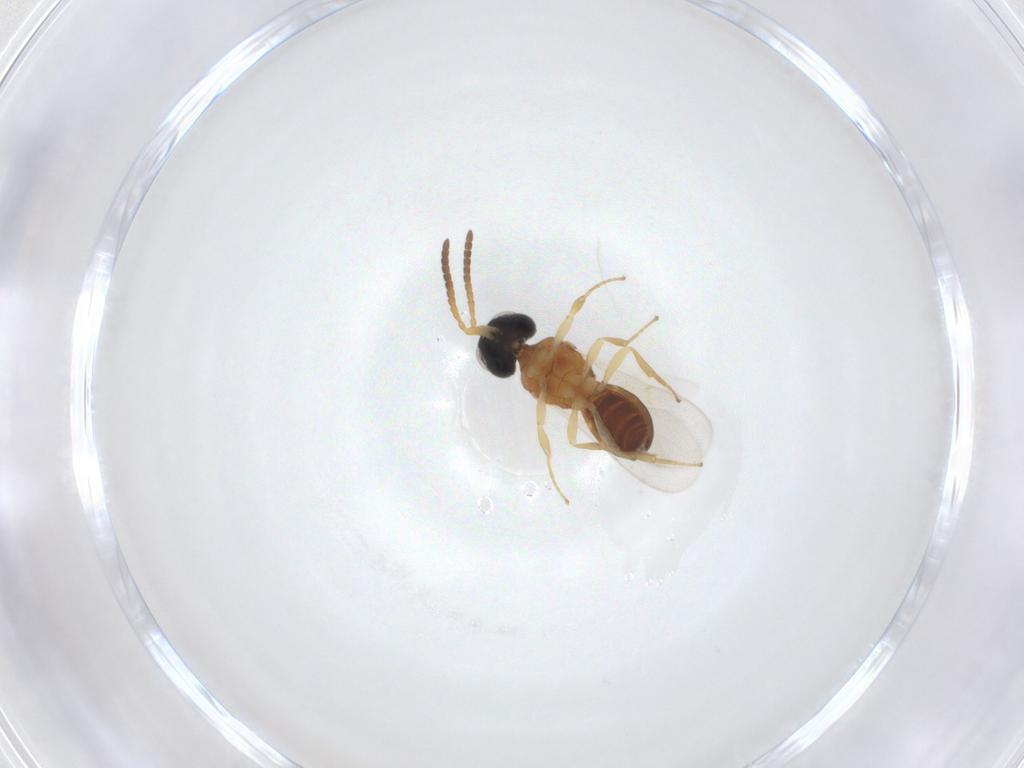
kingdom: Animalia
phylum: Arthropoda
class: Insecta
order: Hymenoptera
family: Scelionidae
